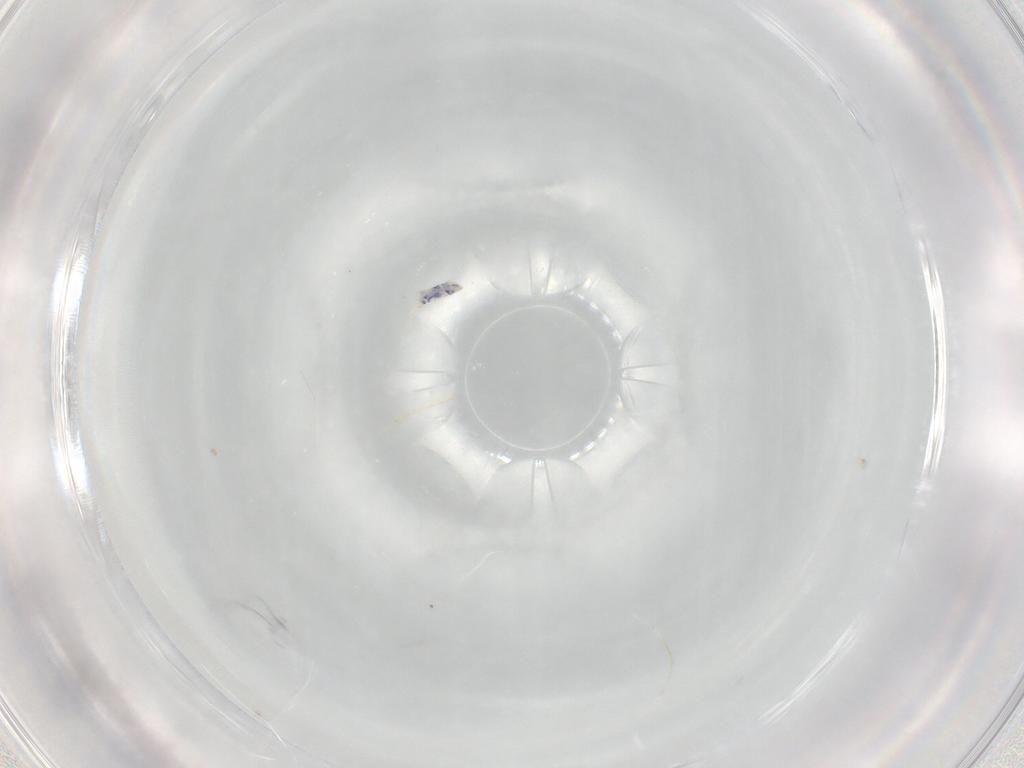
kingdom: Animalia
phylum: Arthropoda
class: Collembola
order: Entomobryomorpha
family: Entomobryidae
